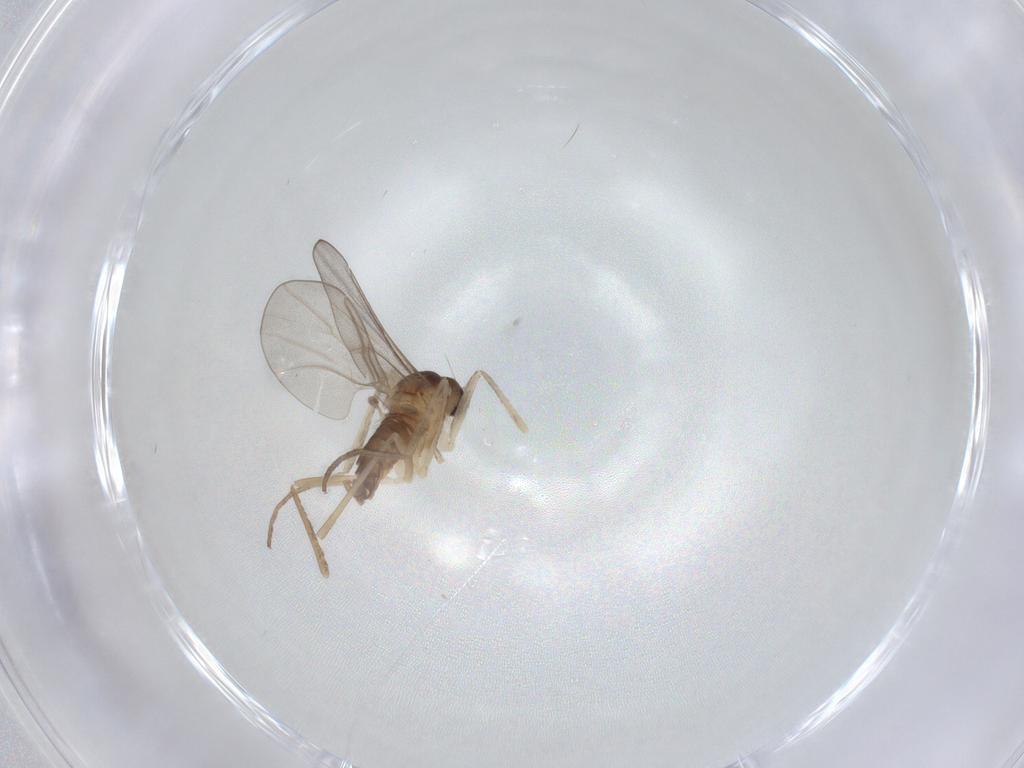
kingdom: Animalia
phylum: Arthropoda
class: Insecta
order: Diptera
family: Cecidomyiidae
